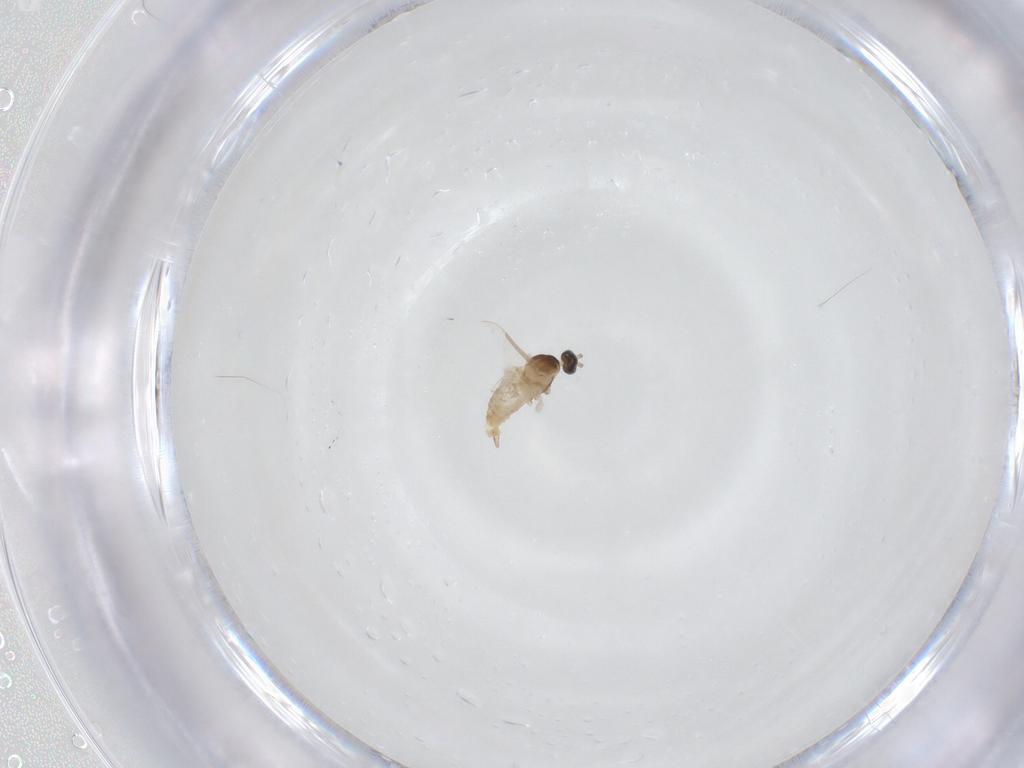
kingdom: Animalia
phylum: Arthropoda
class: Insecta
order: Diptera
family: Cecidomyiidae
